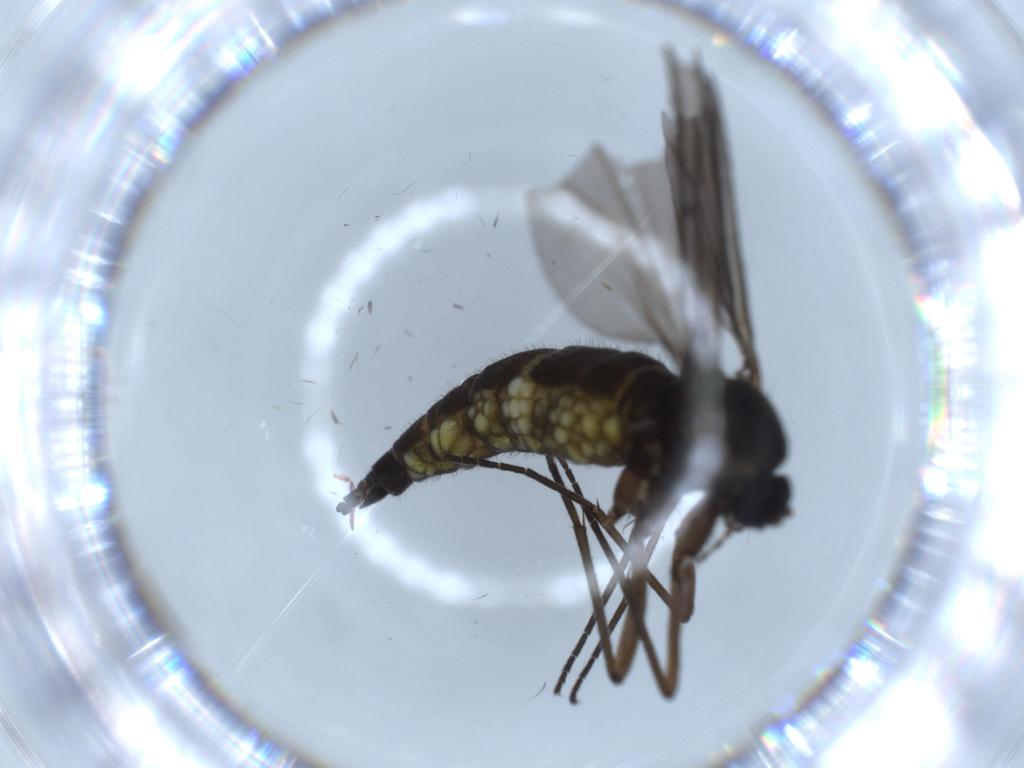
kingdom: Animalia
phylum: Arthropoda
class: Insecta
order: Diptera
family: Sciaridae
